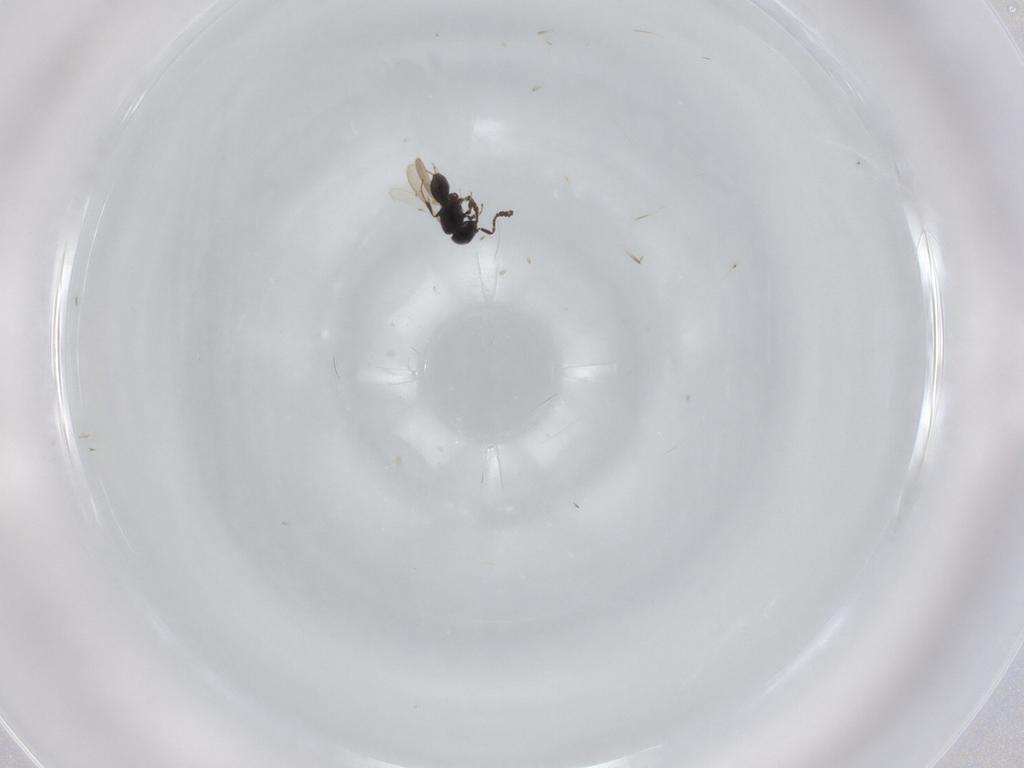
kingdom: Animalia
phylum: Arthropoda
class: Insecta
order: Hymenoptera
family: Scelionidae
